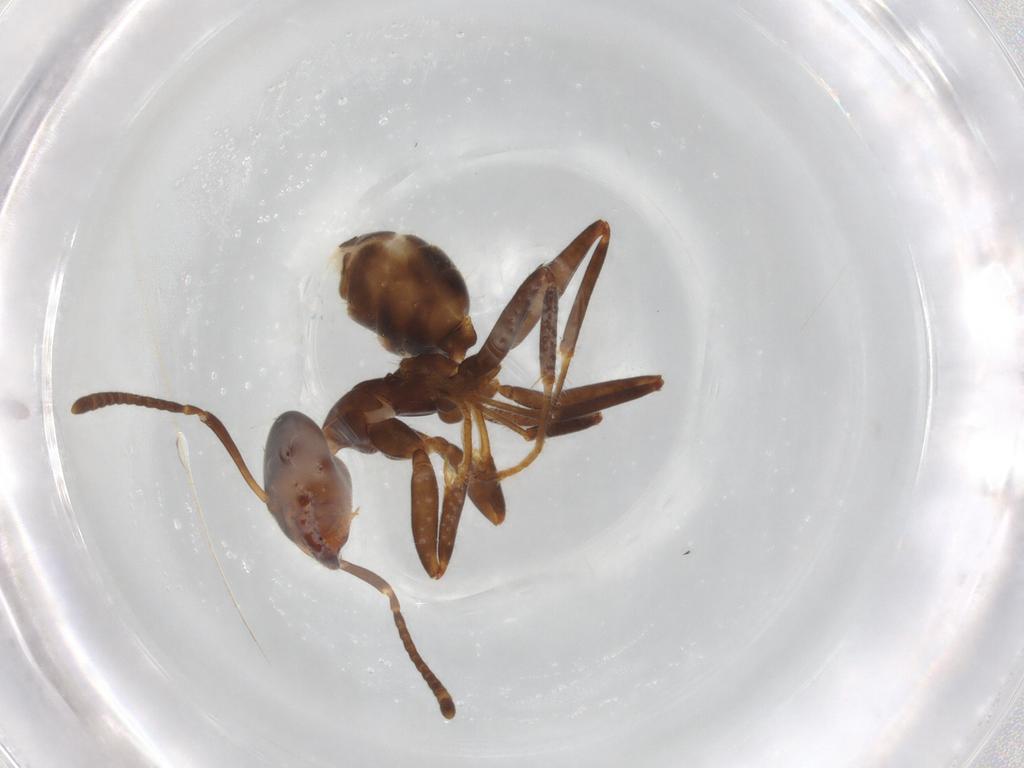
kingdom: Animalia
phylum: Arthropoda
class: Insecta
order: Hymenoptera
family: Formicidae
